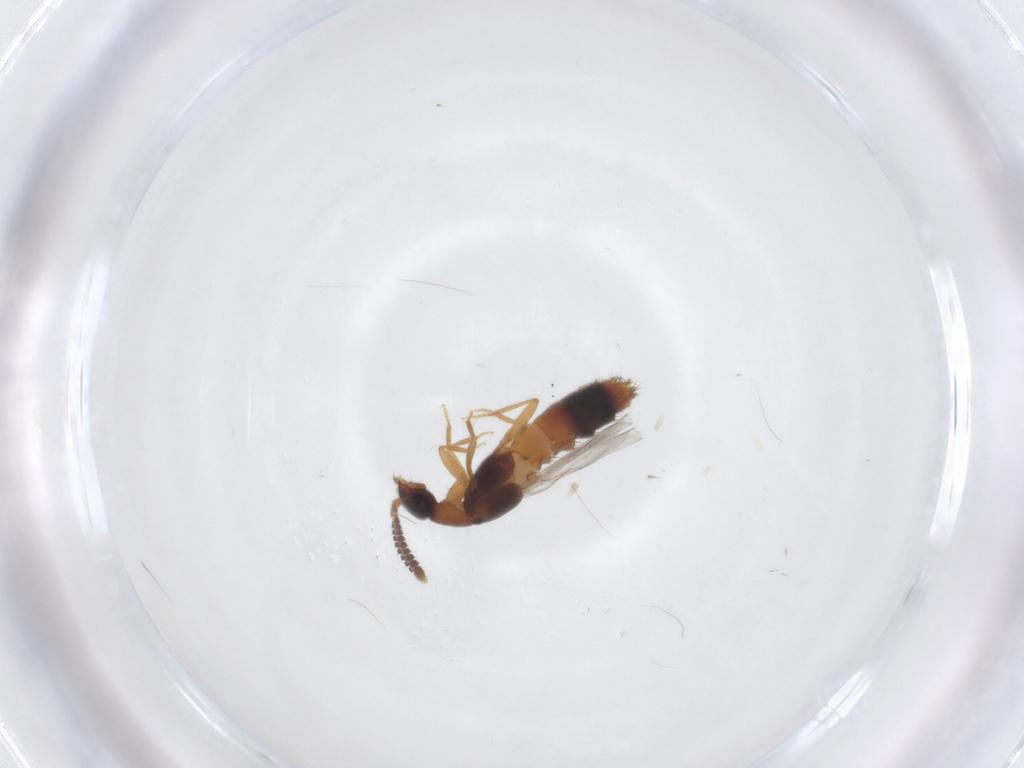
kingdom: Animalia
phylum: Arthropoda
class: Insecta
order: Coleoptera
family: Staphylinidae
